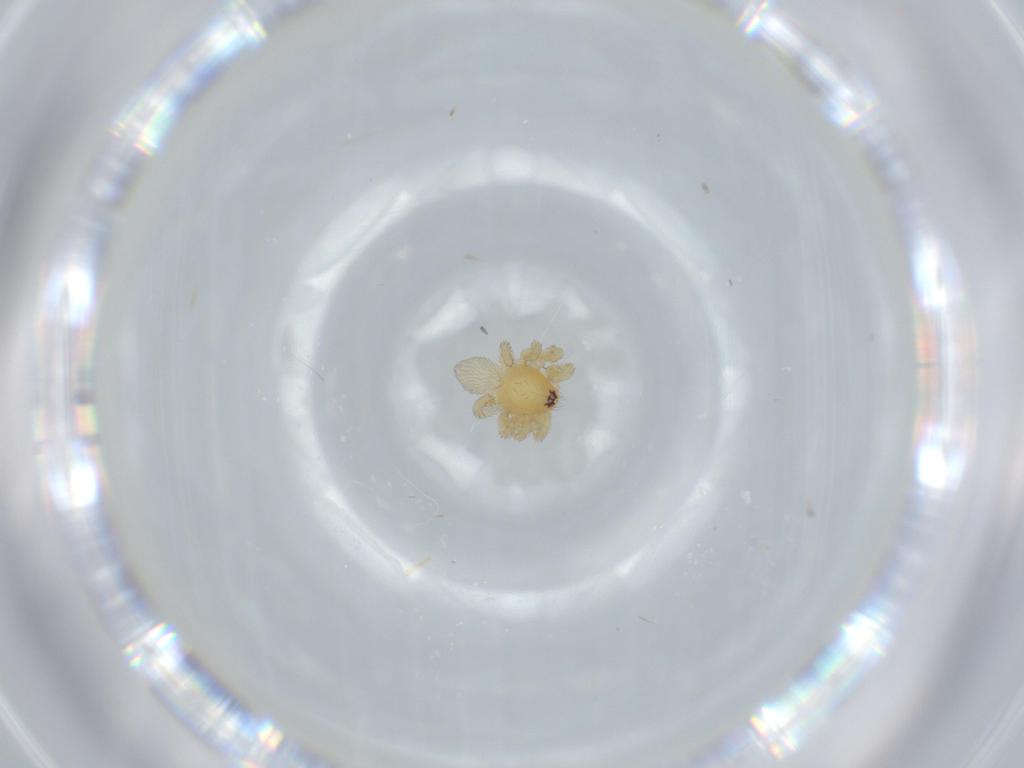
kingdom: Animalia
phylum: Arthropoda
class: Arachnida
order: Araneae
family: Oonopidae
